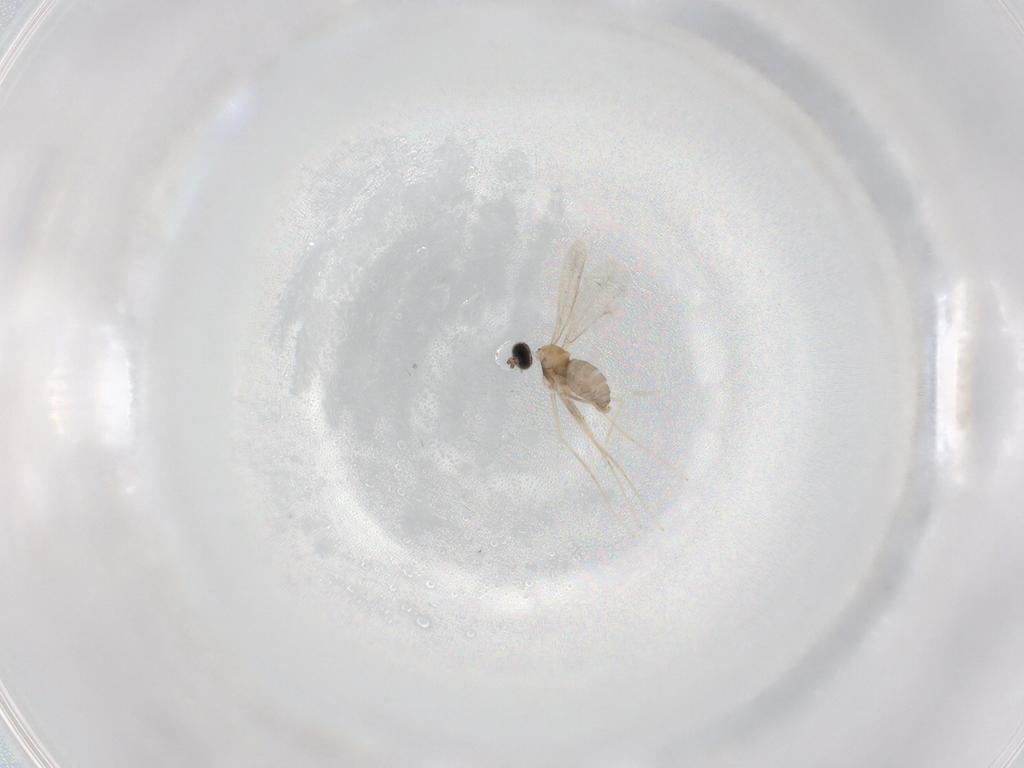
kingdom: Animalia
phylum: Arthropoda
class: Insecta
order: Diptera
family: Cecidomyiidae
